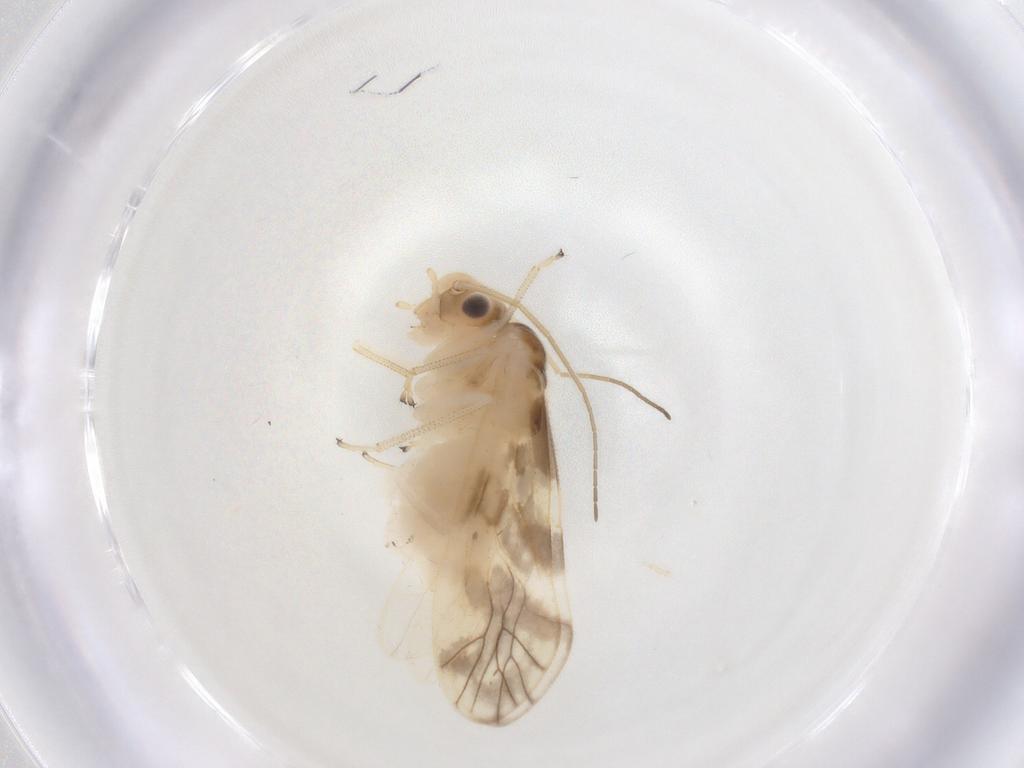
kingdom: Animalia
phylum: Arthropoda
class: Insecta
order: Psocodea
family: Caeciliusidae
